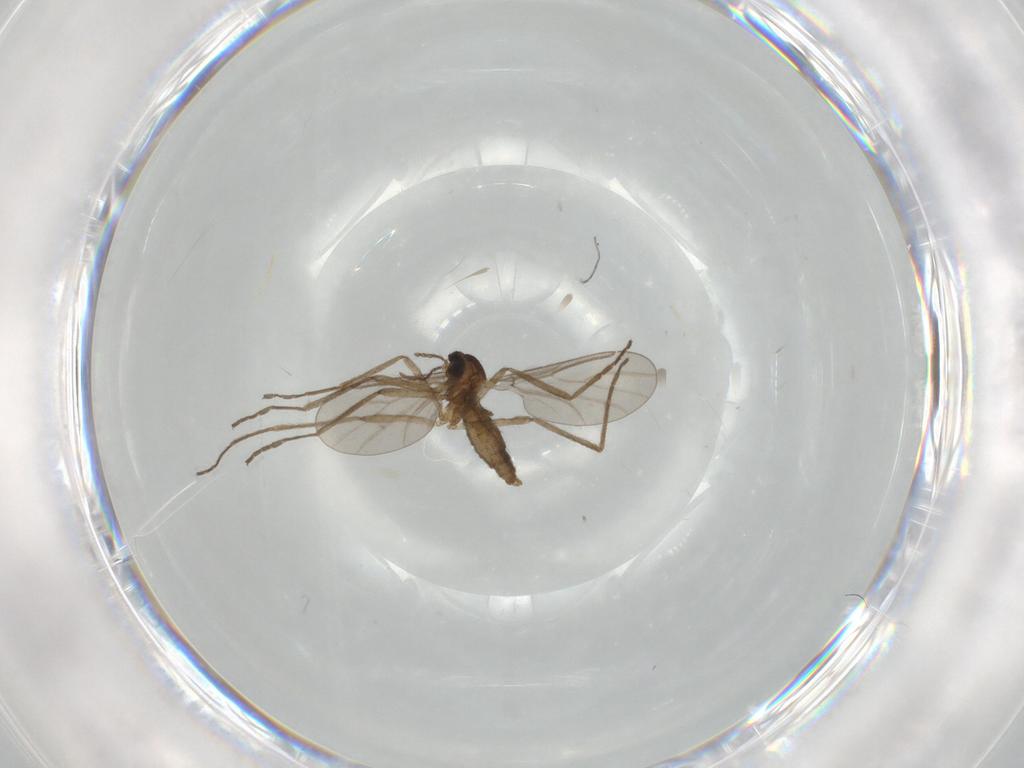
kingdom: Animalia
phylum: Arthropoda
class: Insecta
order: Diptera
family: Cecidomyiidae
